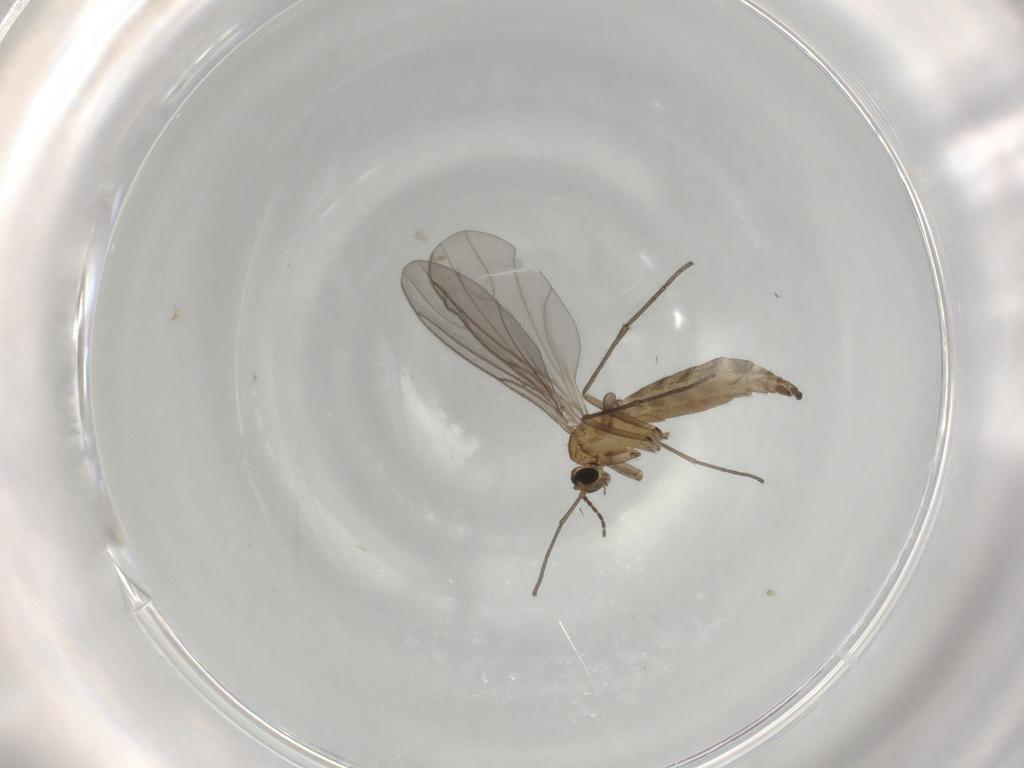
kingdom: Animalia
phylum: Arthropoda
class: Insecta
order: Diptera
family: Sciaridae
